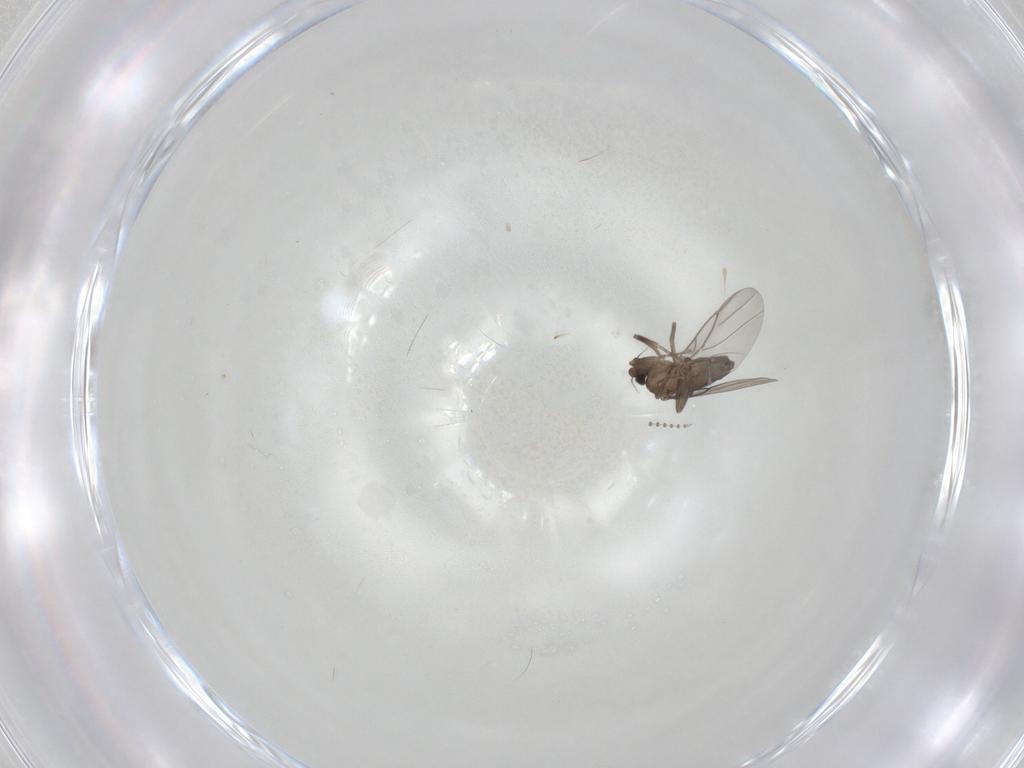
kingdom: Animalia
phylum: Arthropoda
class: Insecta
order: Diptera
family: Psychodidae
